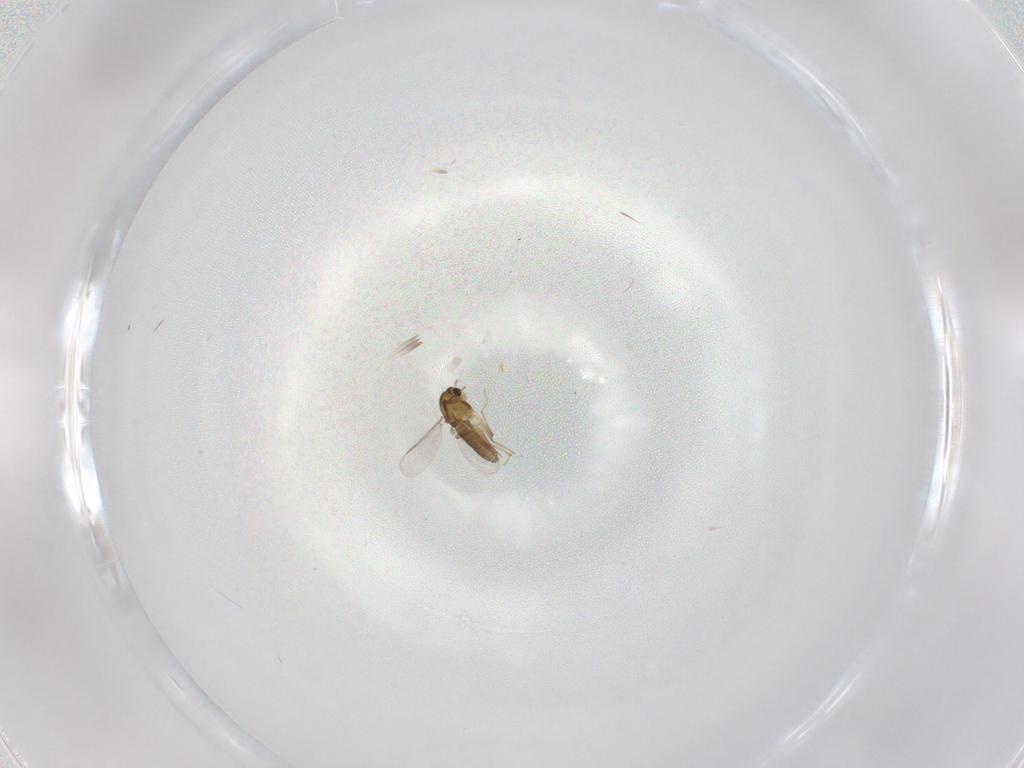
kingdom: Animalia
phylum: Arthropoda
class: Insecta
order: Diptera
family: Chironomidae
